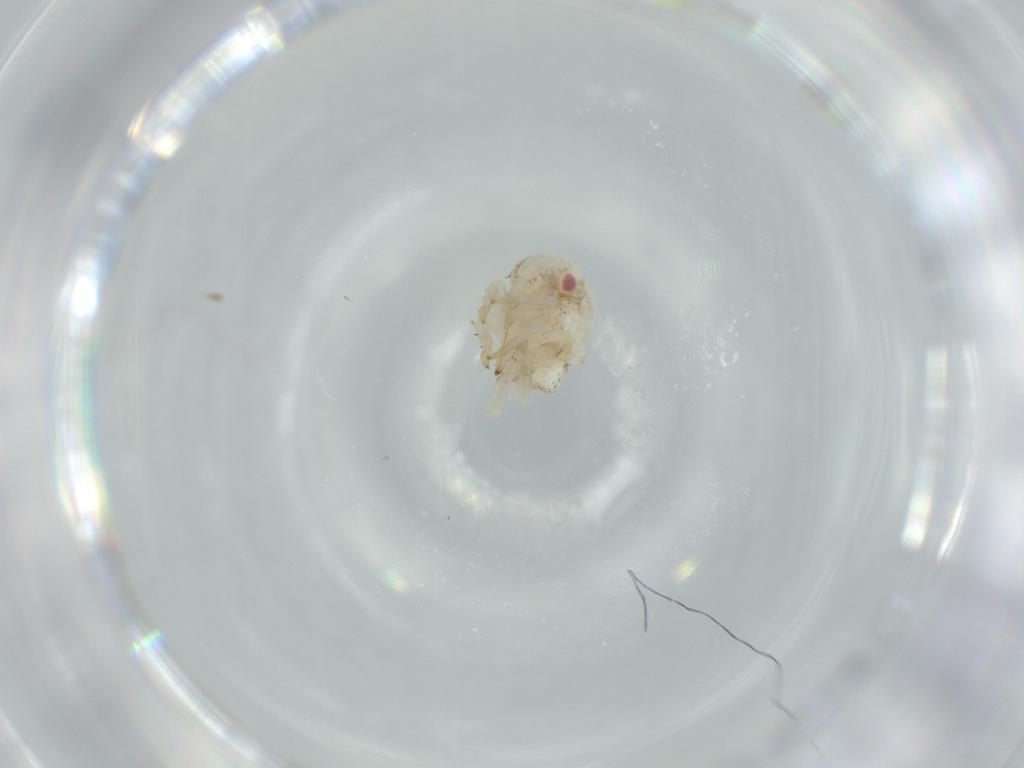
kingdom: Animalia
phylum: Arthropoda
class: Insecta
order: Hemiptera
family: Acanaloniidae
